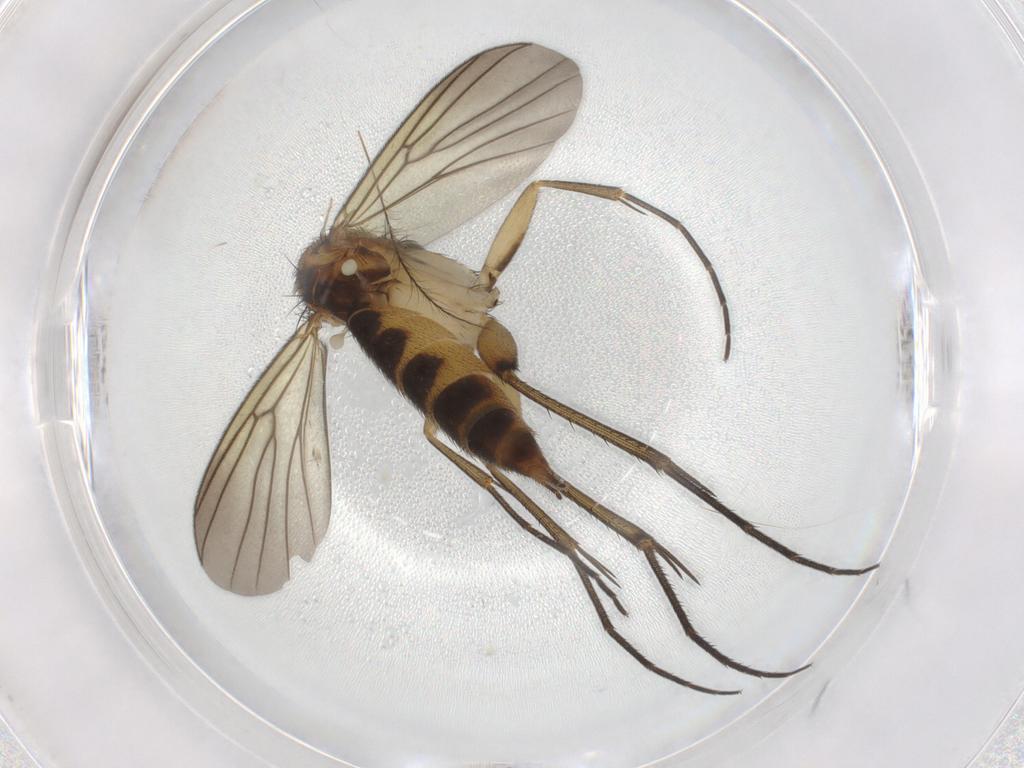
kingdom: Animalia
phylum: Arthropoda
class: Insecta
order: Diptera
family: Mycetophilidae
